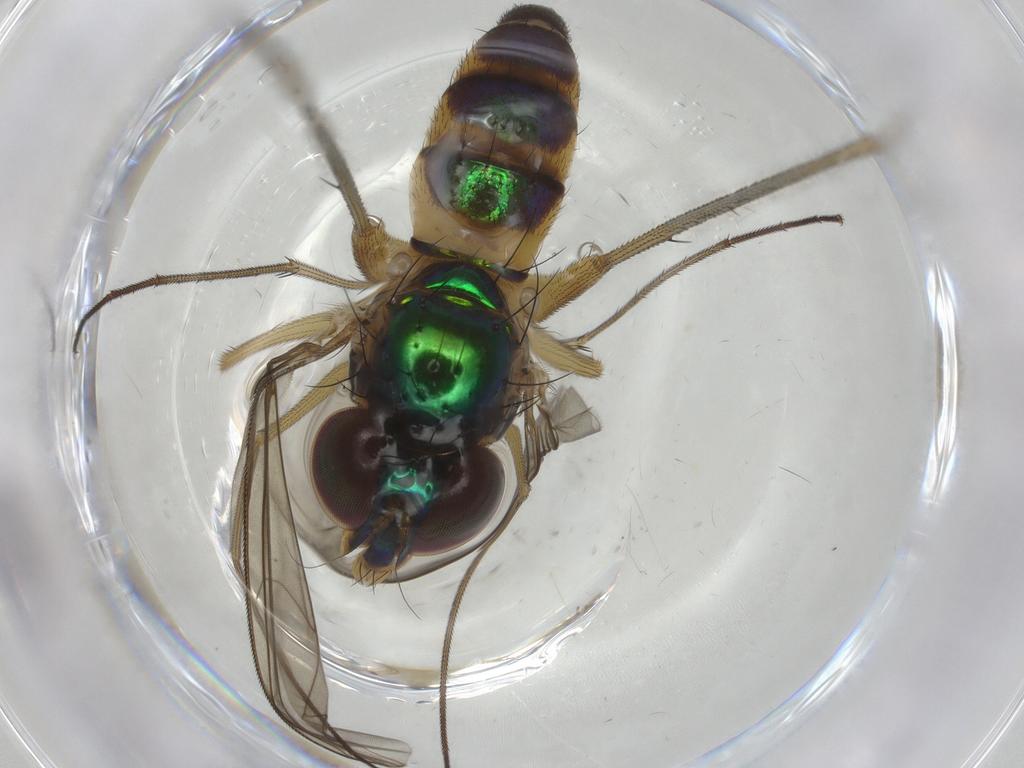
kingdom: Animalia
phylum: Arthropoda
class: Insecta
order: Diptera
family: Dolichopodidae
